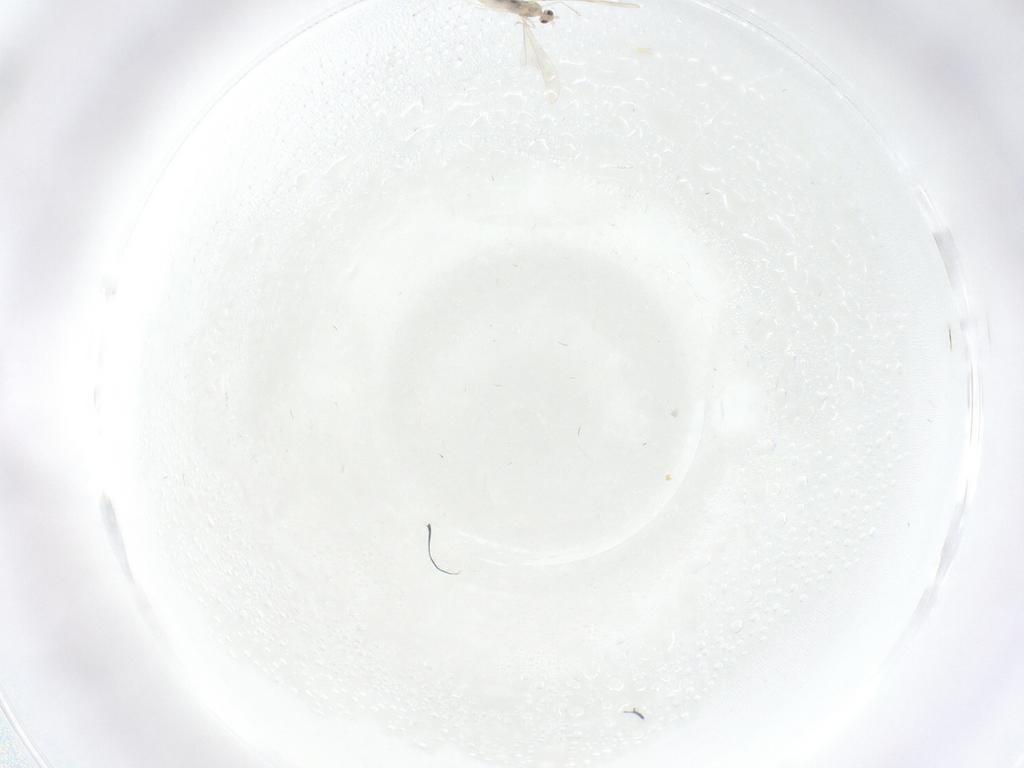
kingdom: Animalia
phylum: Arthropoda
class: Insecta
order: Diptera
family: Cecidomyiidae
